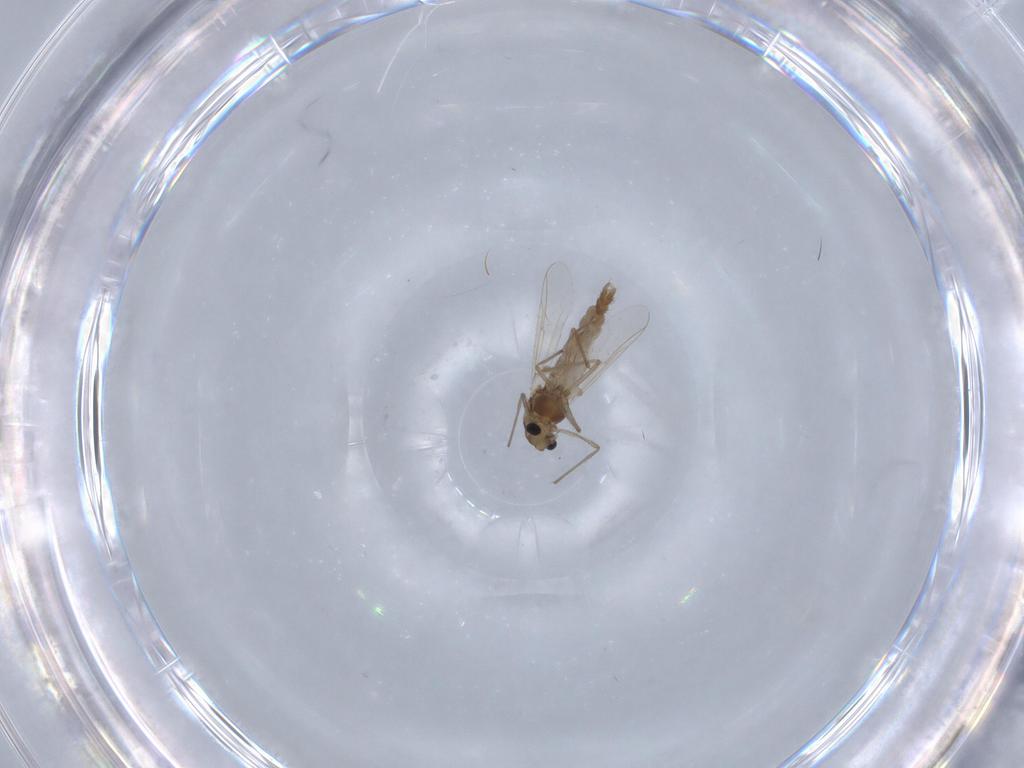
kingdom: Animalia
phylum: Arthropoda
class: Insecta
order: Diptera
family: Chironomidae
